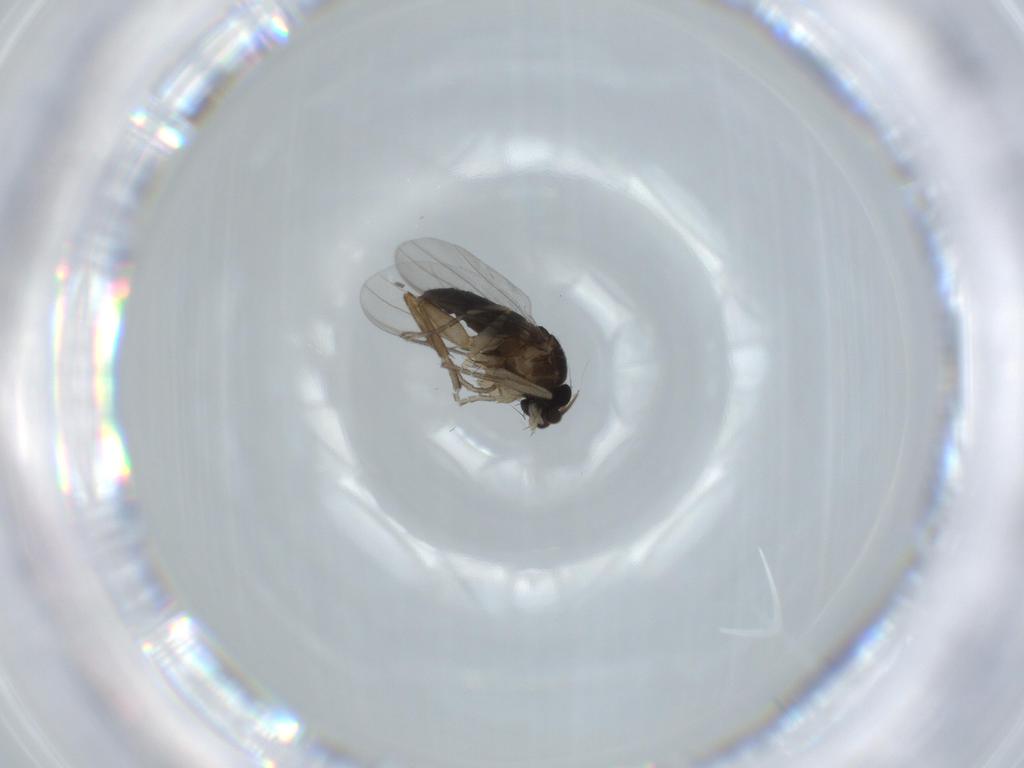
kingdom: Animalia
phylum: Arthropoda
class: Insecta
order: Diptera
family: Phoridae
